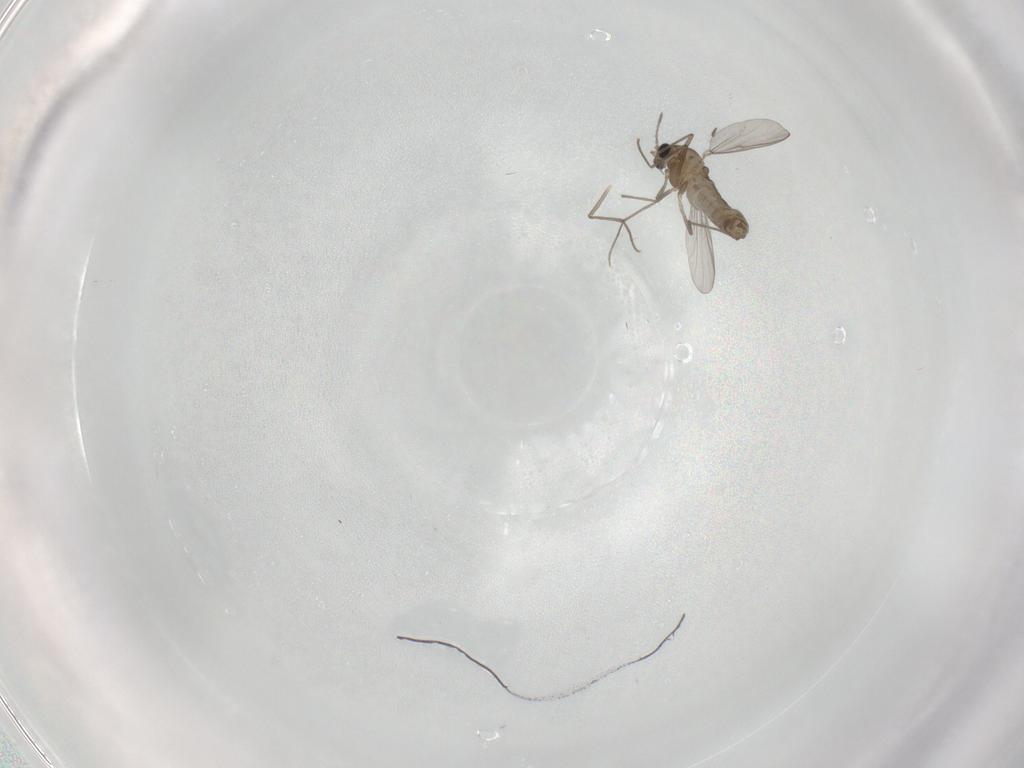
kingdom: Animalia
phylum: Arthropoda
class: Insecta
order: Diptera
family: Chironomidae
